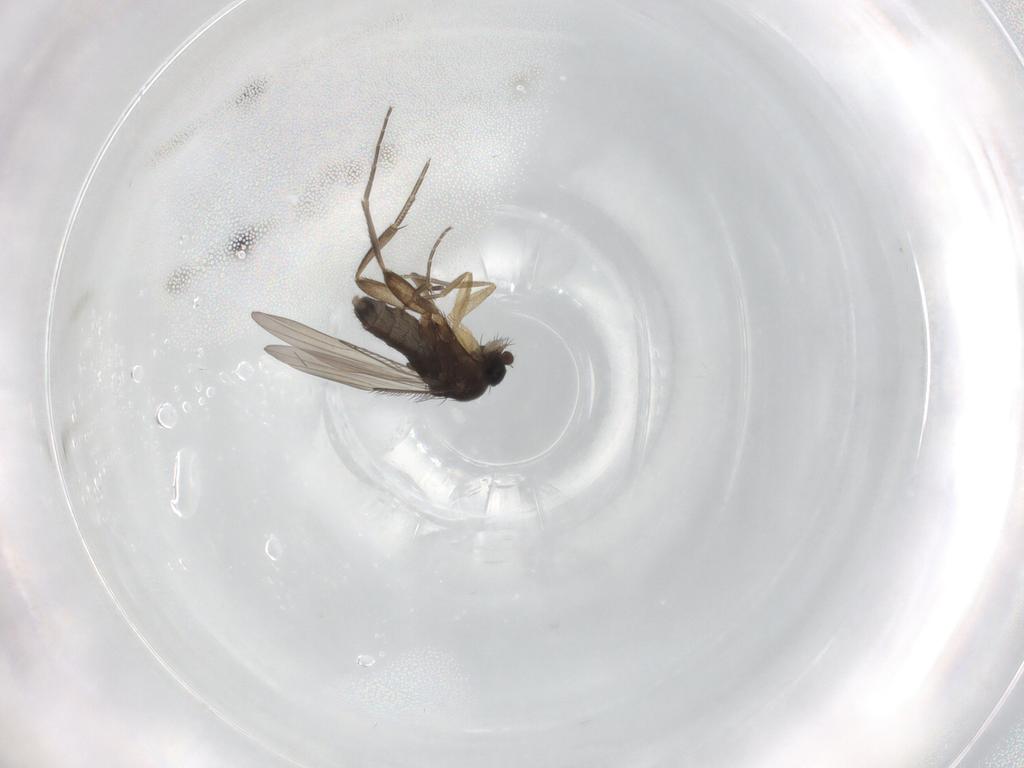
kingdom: Animalia
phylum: Arthropoda
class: Insecta
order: Diptera
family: Phoridae
